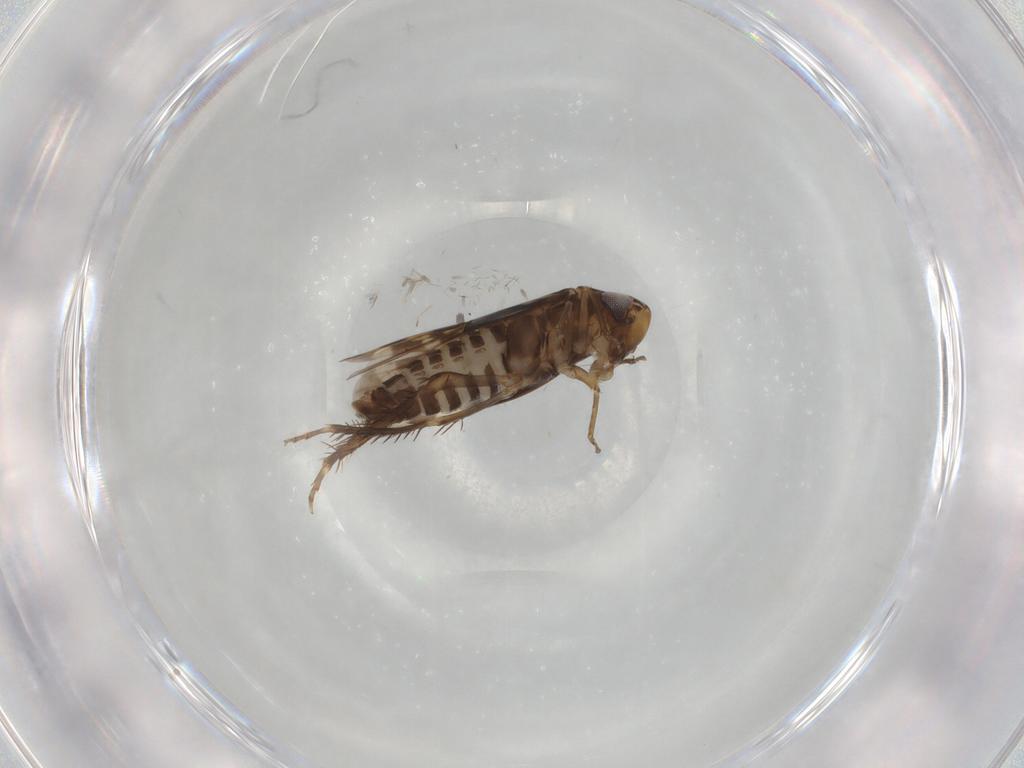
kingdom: Animalia
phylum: Arthropoda
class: Insecta
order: Hemiptera
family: Cicadellidae
